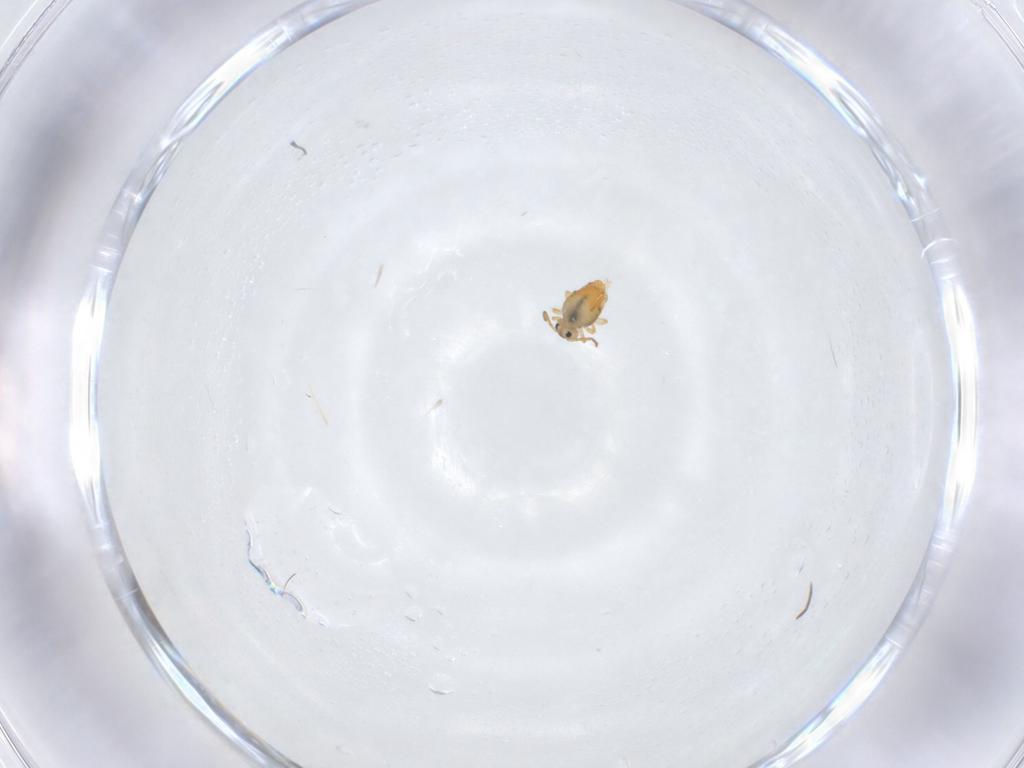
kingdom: Animalia
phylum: Arthropoda
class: Collembola
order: Symphypleona
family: Katiannidae
